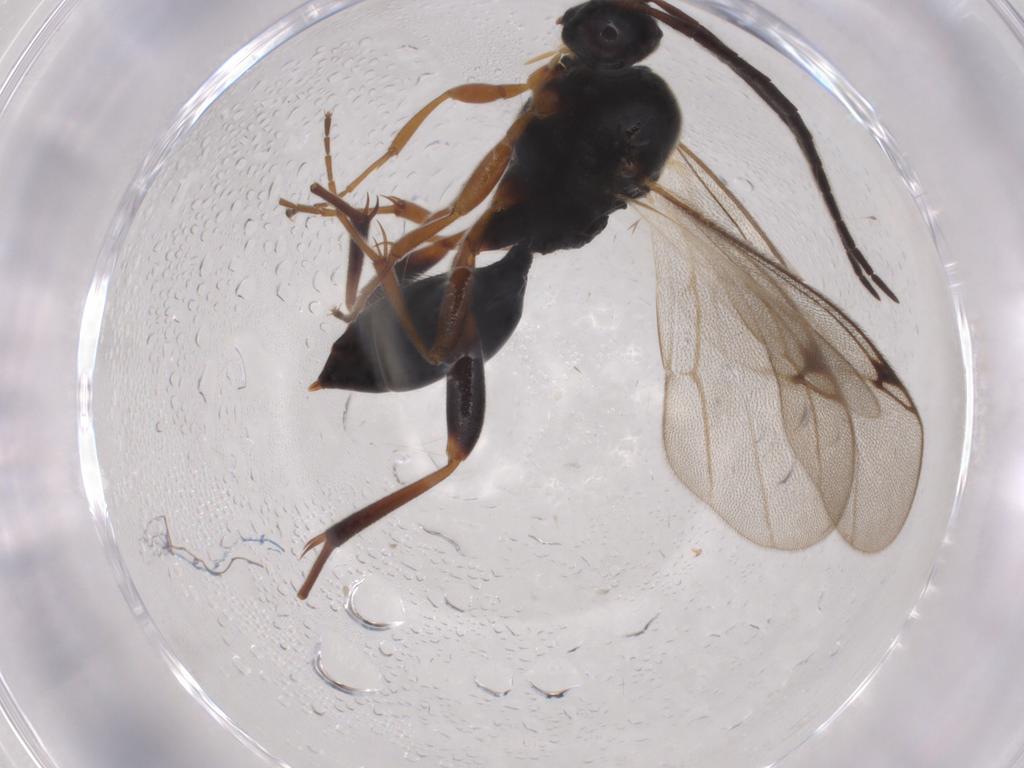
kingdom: Animalia
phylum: Arthropoda
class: Insecta
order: Hymenoptera
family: Proctotrupidae
